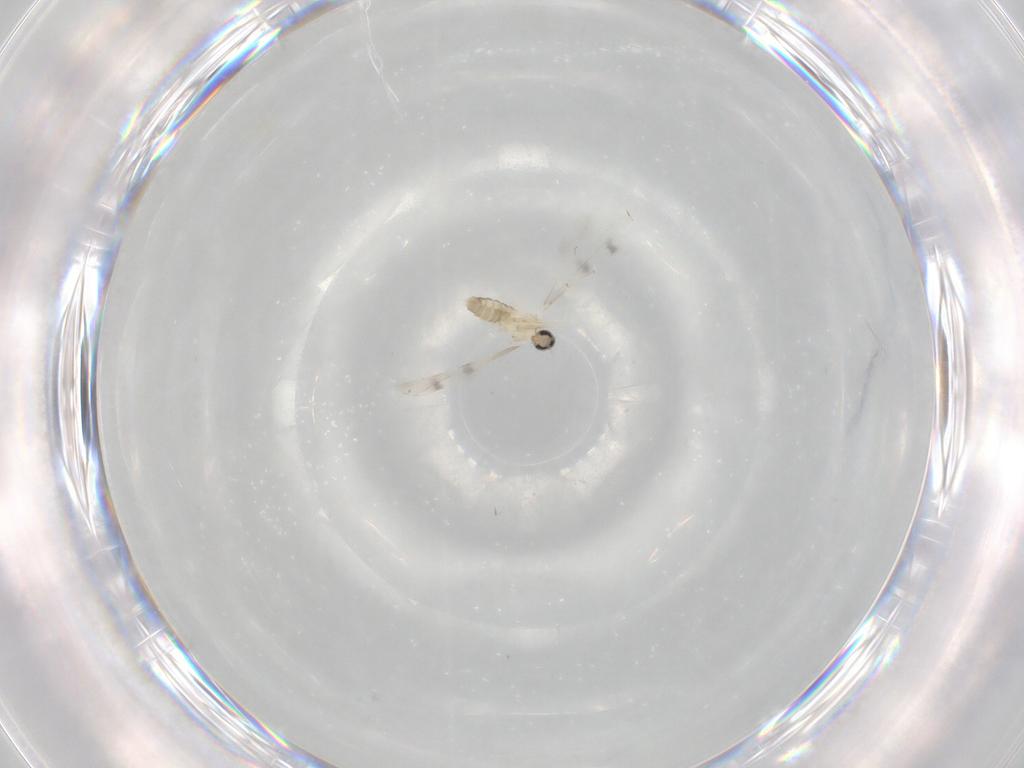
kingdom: Animalia
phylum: Arthropoda
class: Insecta
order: Diptera
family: Cecidomyiidae
